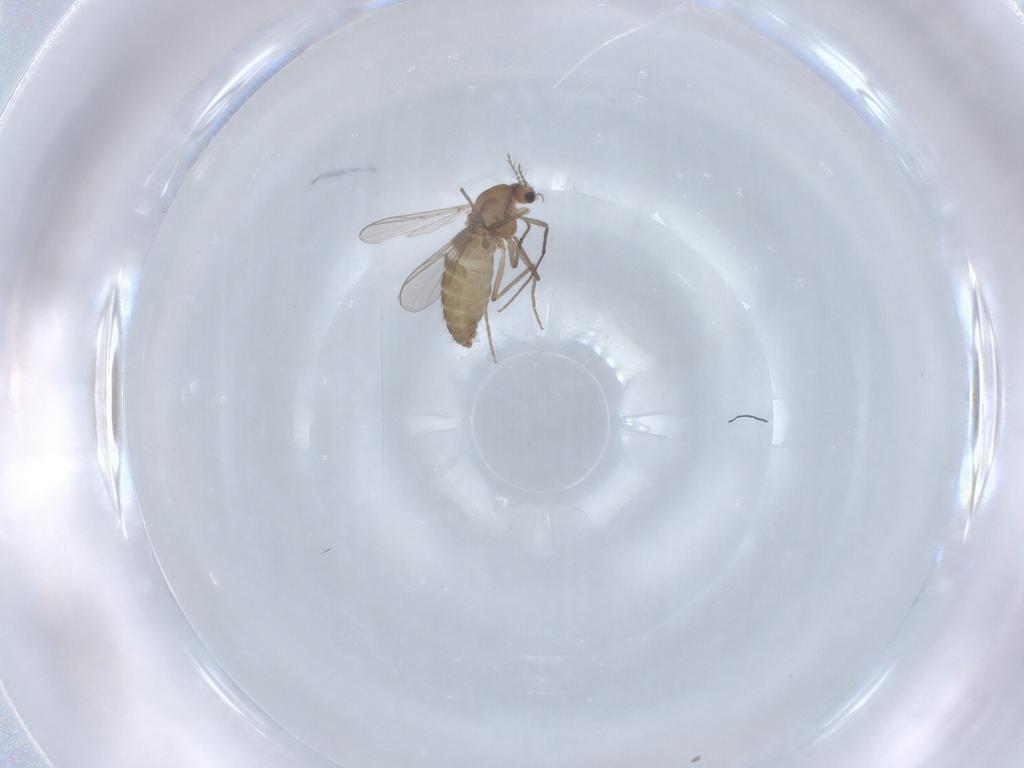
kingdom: Animalia
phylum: Arthropoda
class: Insecta
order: Diptera
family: Chironomidae
